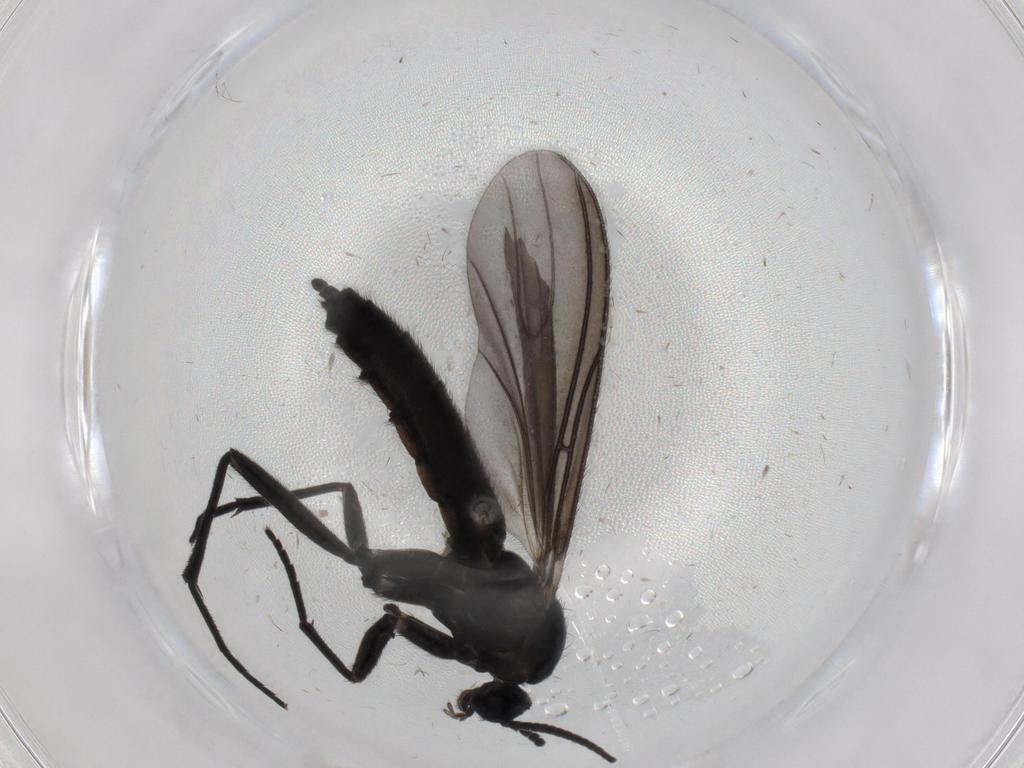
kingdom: Animalia
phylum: Arthropoda
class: Insecta
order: Diptera
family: Sciaridae
